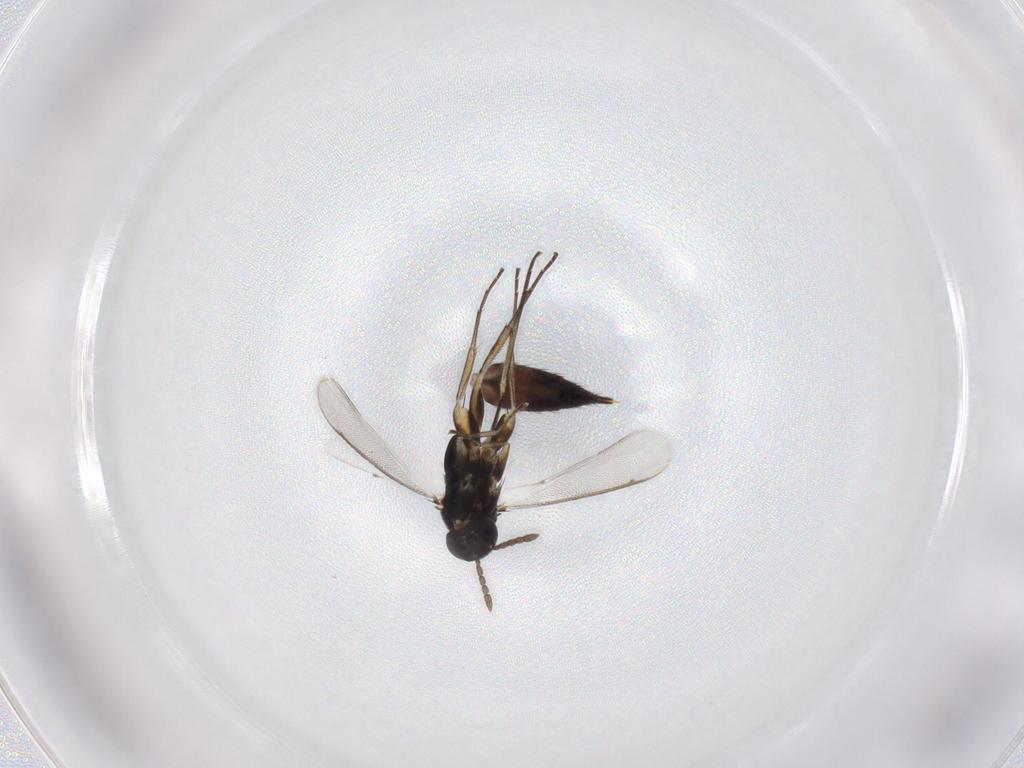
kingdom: Animalia
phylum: Arthropoda
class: Insecta
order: Hymenoptera
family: Eulophidae
